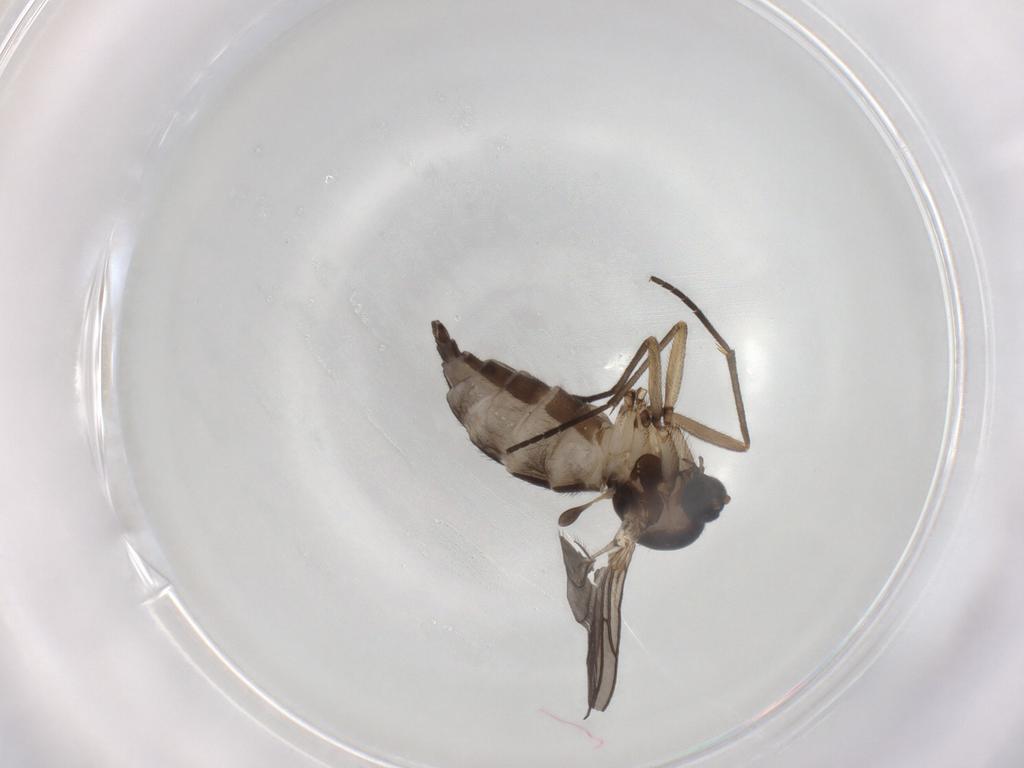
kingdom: Animalia
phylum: Arthropoda
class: Insecta
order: Diptera
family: Sciaridae
